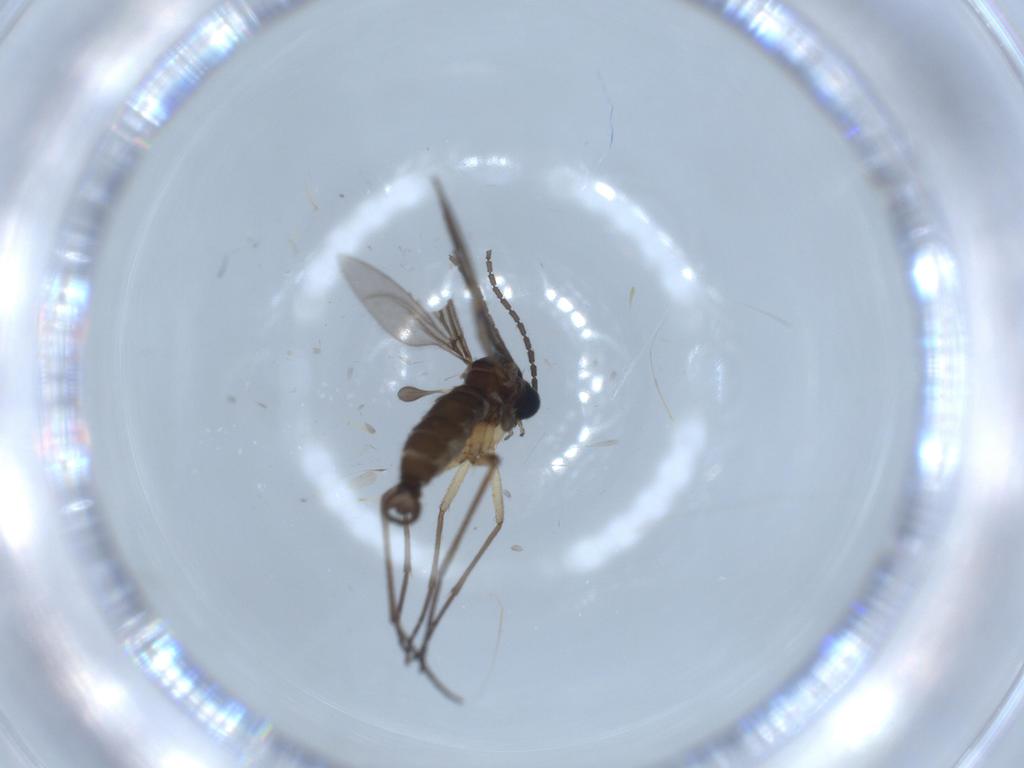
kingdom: Animalia
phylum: Arthropoda
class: Insecta
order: Diptera
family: Sciaridae
